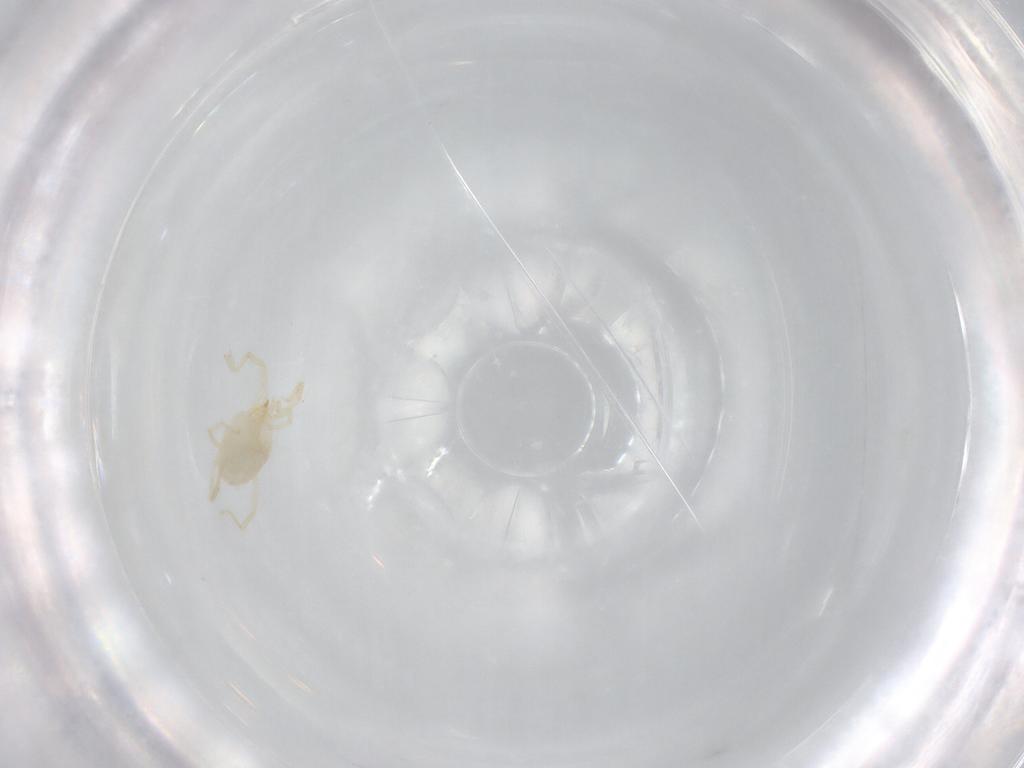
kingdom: Animalia
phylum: Arthropoda
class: Arachnida
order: Trombidiformes
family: Erythraeidae
